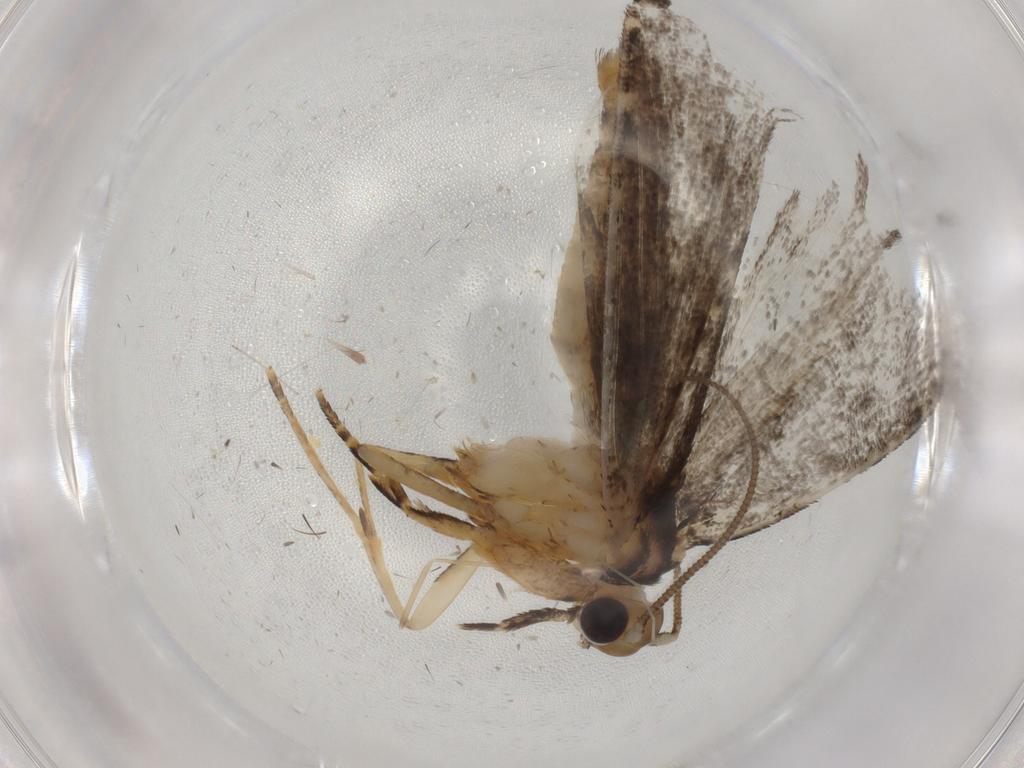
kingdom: Animalia
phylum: Arthropoda
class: Insecta
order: Lepidoptera
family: Tineidae
